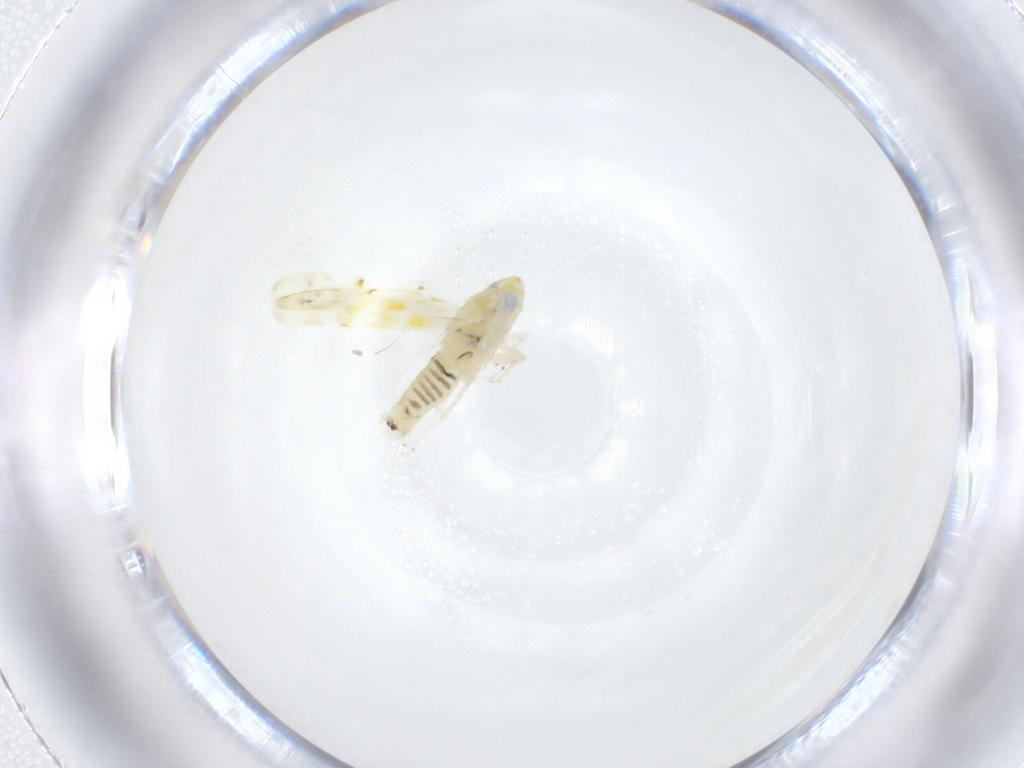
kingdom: Animalia
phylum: Arthropoda
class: Insecta
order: Hemiptera
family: Cicadellidae
